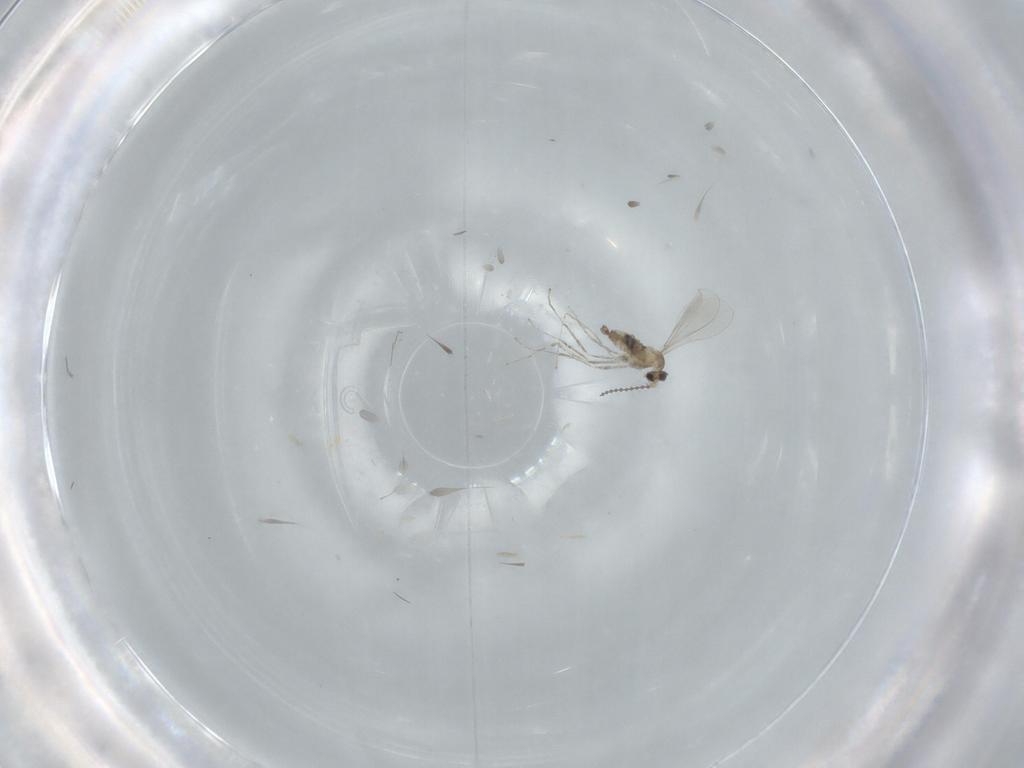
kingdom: Animalia
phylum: Arthropoda
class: Insecta
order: Diptera
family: Cecidomyiidae
